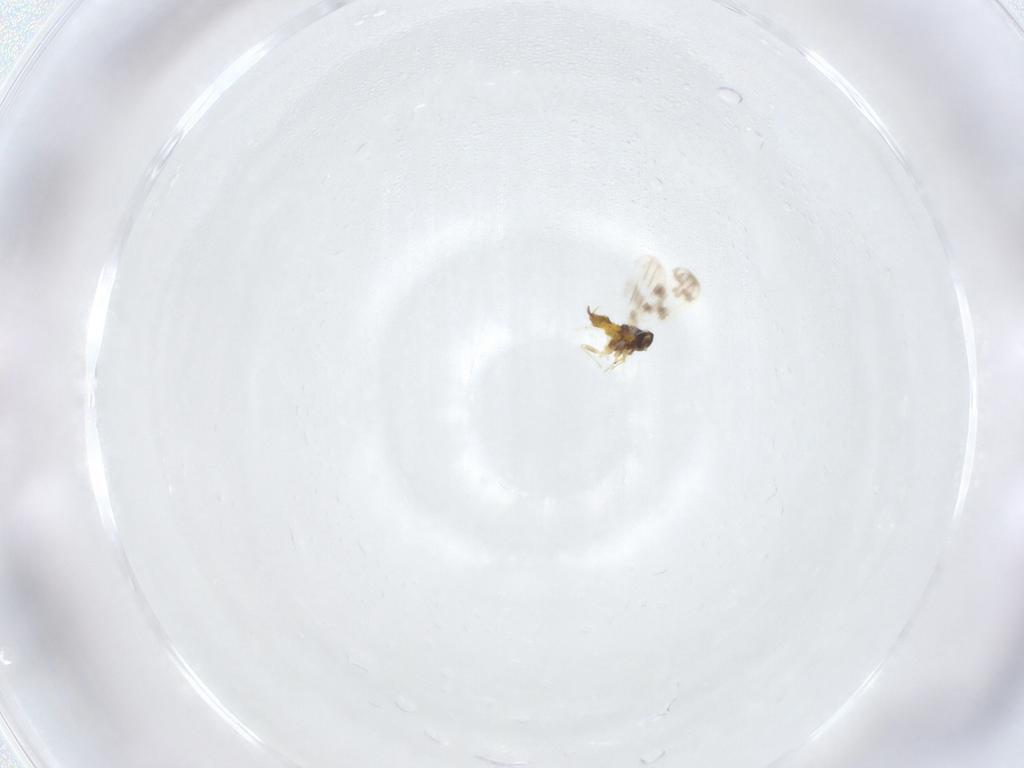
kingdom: Animalia
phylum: Arthropoda
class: Insecta
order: Hemiptera
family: Aleyrodidae
